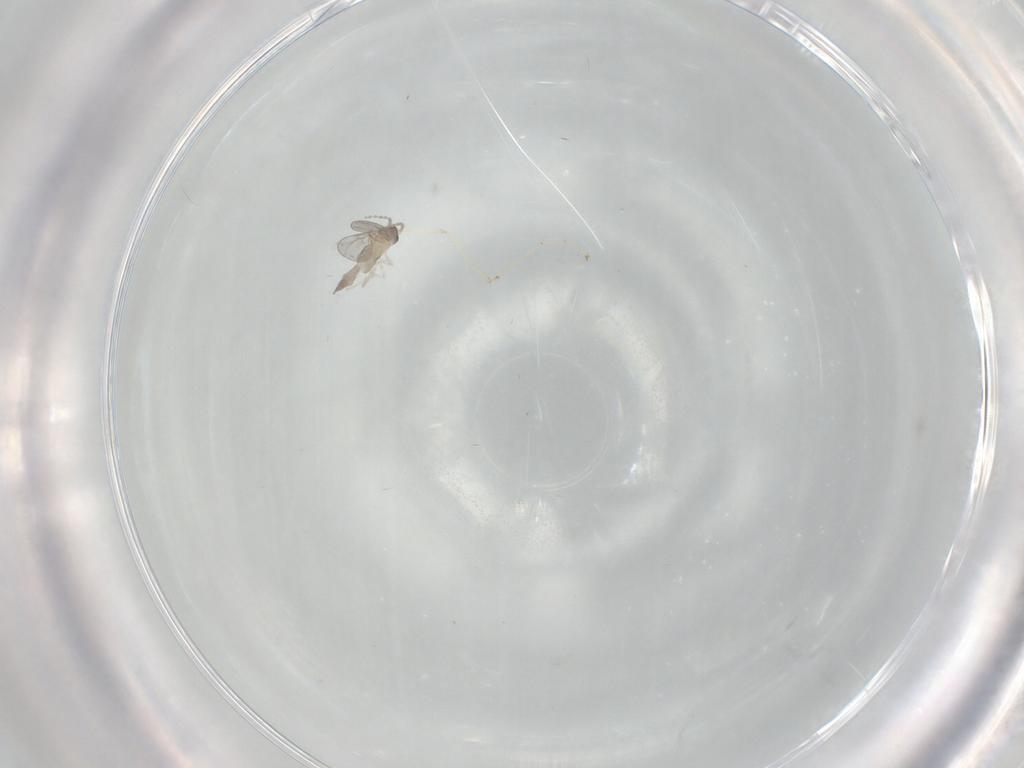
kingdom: Animalia
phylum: Arthropoda
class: Insecta
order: Diptera
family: Cecidomyiidae
